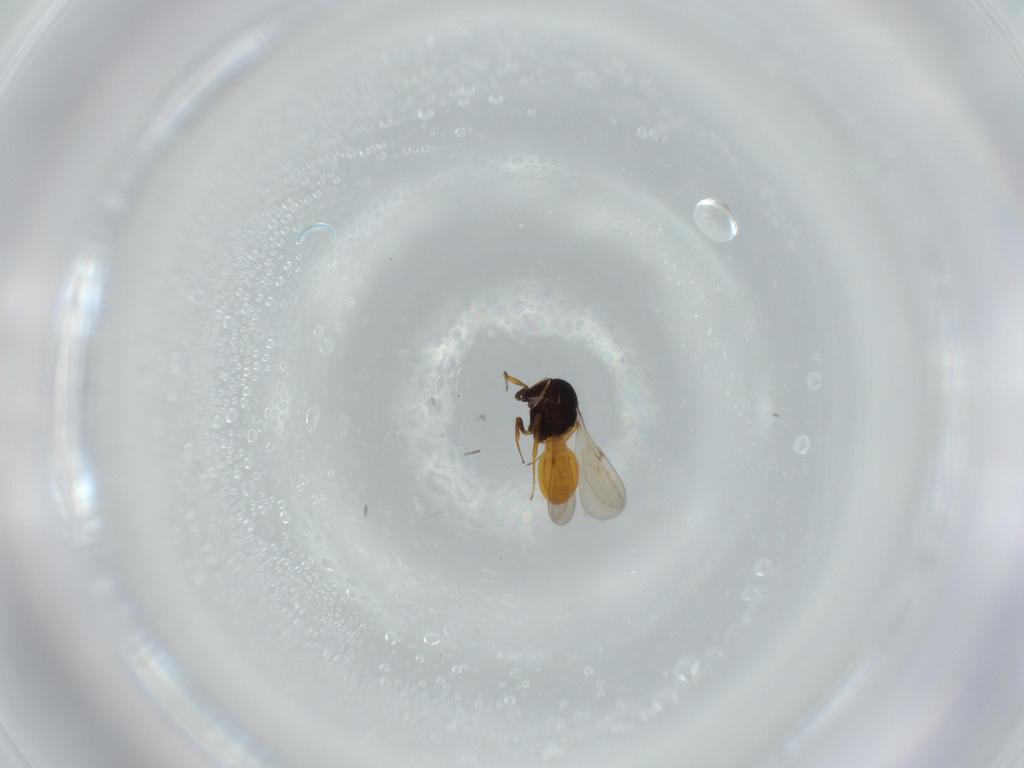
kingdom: Animalia
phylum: Arthropoda
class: Insecta
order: Hymenoptera
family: Scelionidae
